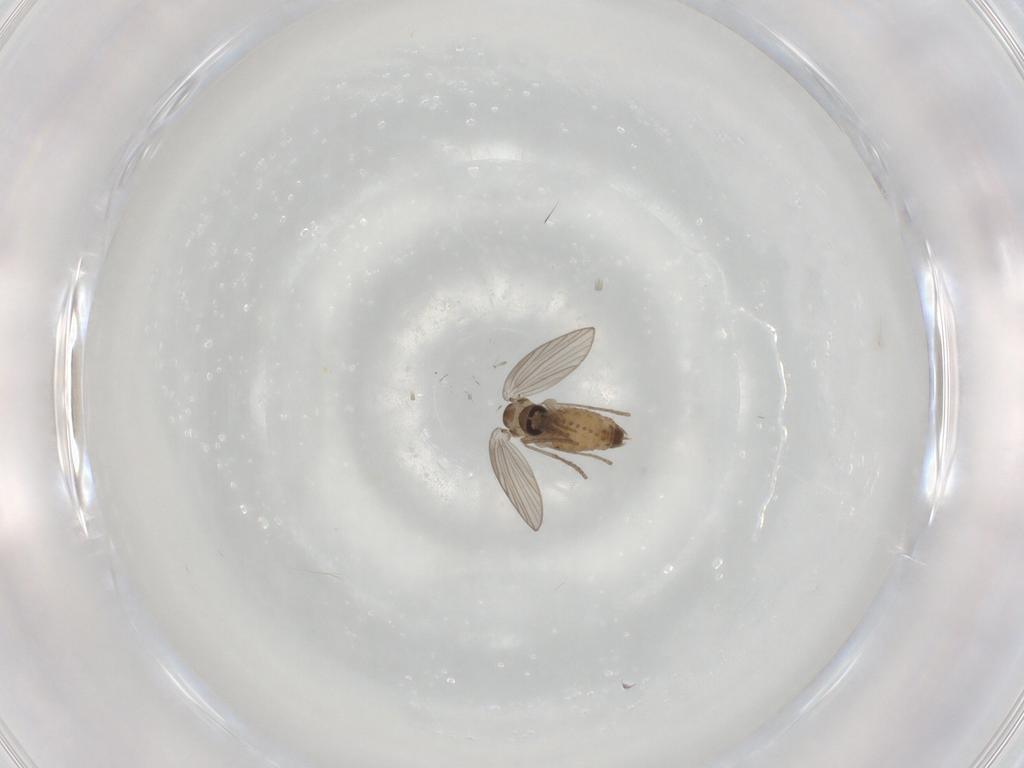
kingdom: Animalia
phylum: Arthropoda
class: Insecta
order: Diptera
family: Psychodidae
